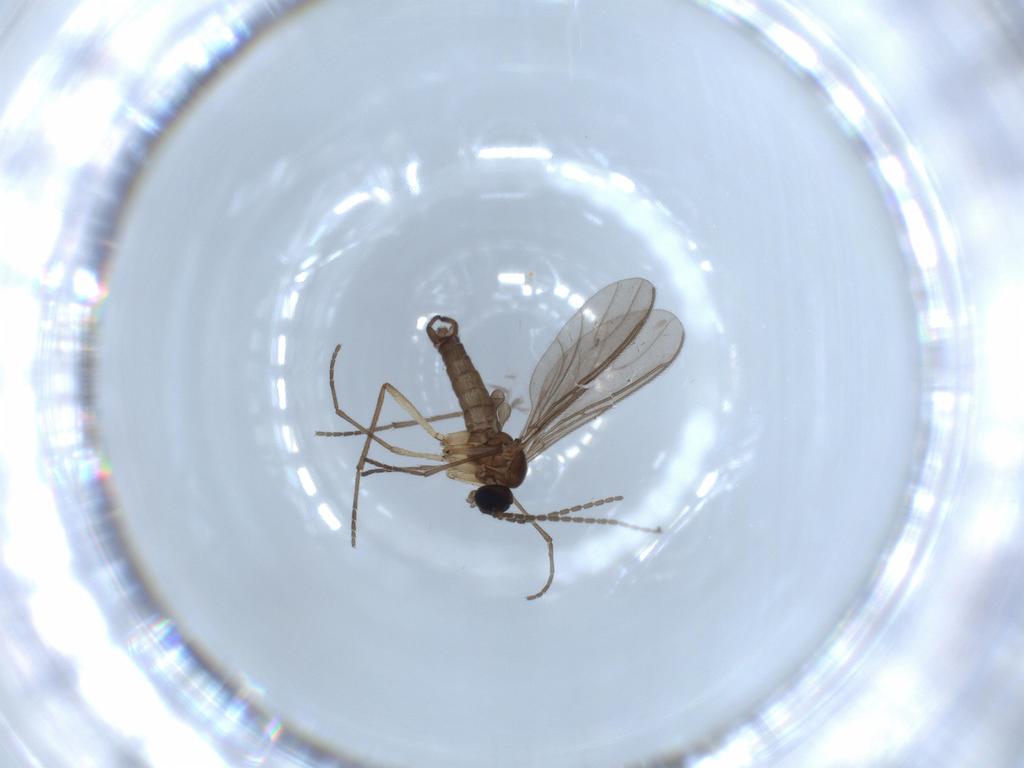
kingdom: Animalia
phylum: Arthropoda
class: Insecta
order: Diptera
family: Sciaridae
